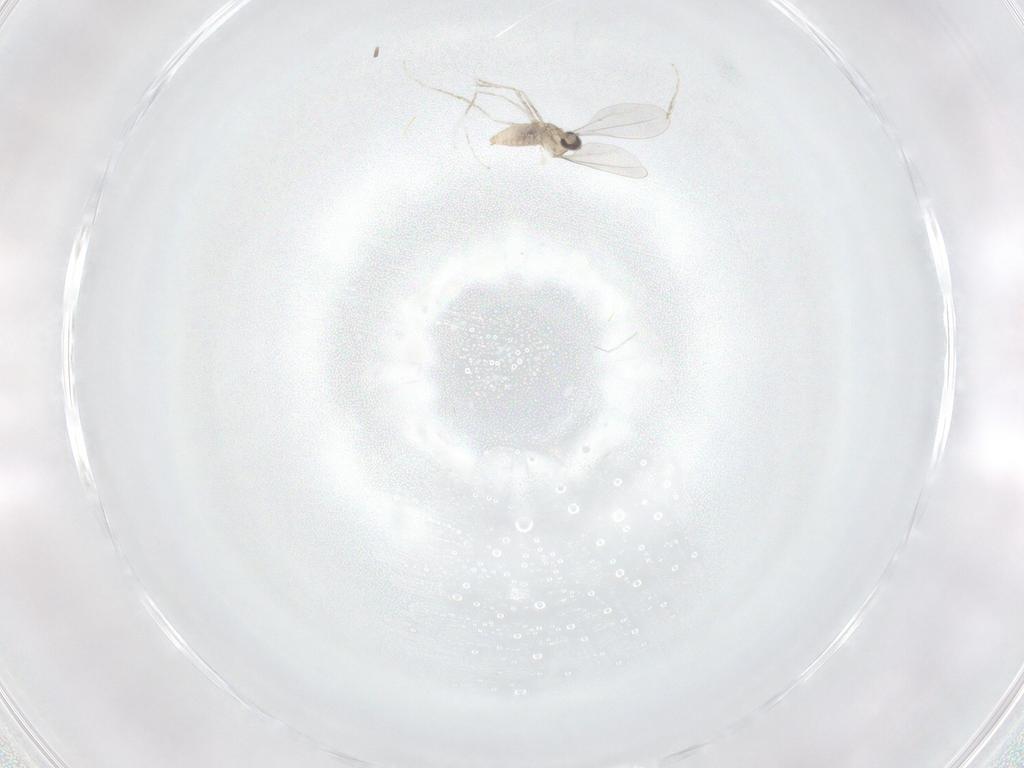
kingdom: Animalia
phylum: Arthropoda
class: Insecta
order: Diptera
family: Cecidomyiidae
